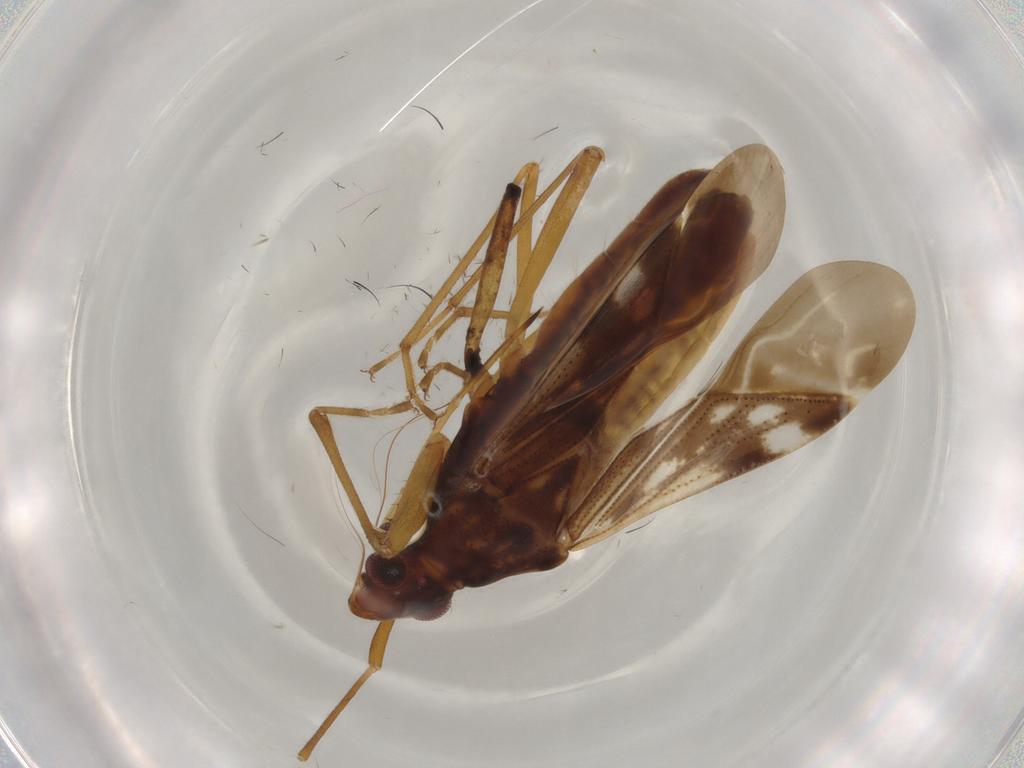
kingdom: Animalia
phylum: Arthropoda
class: Insecta
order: Hemiptera
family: Rhyparochromidae
